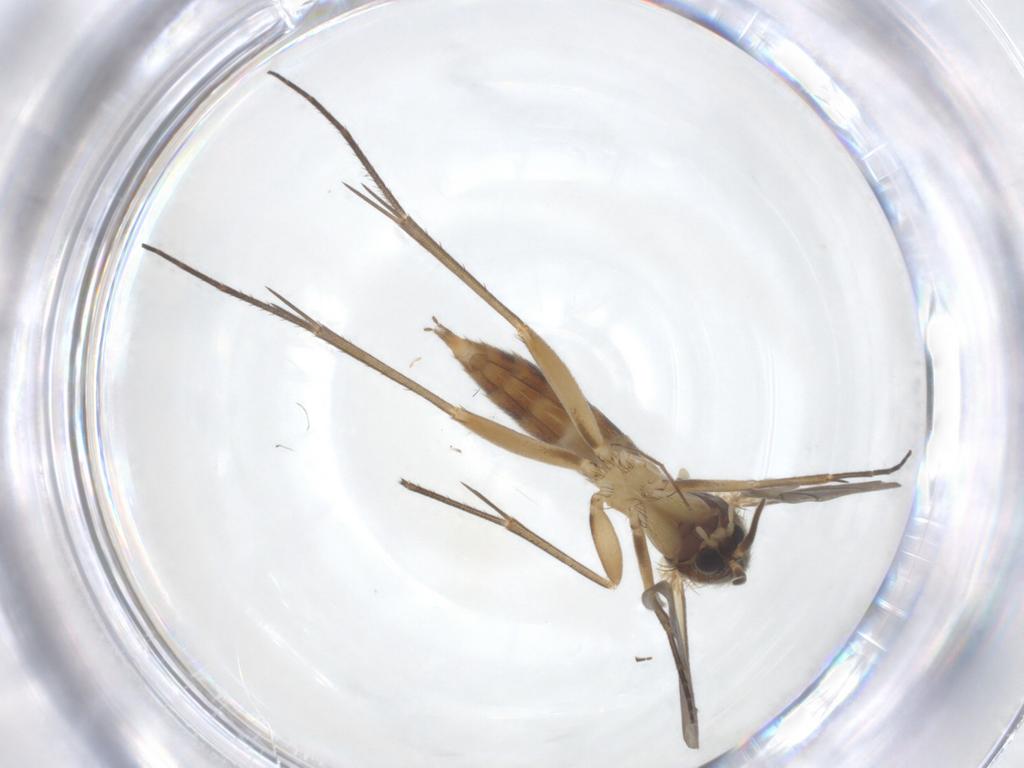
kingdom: Animalia
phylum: Arthropoda
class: Insecta
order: Diptera
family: Chironomidae
